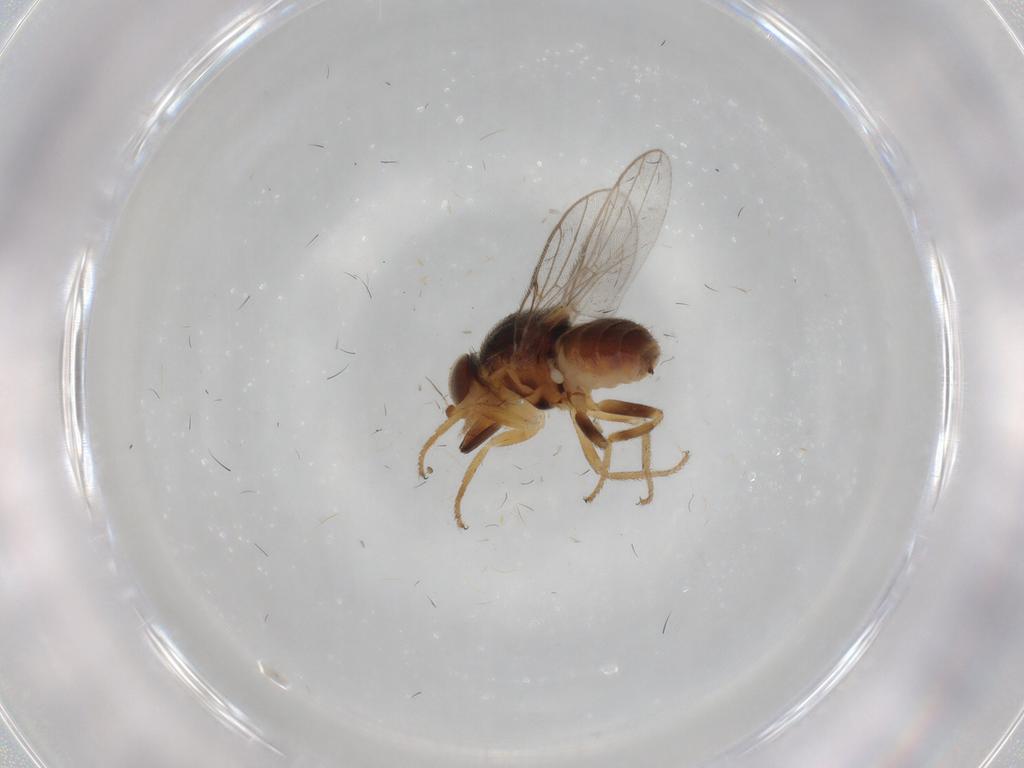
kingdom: Animalia
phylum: Arthropoda
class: Insecta
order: Diptera
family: Chloropidae
